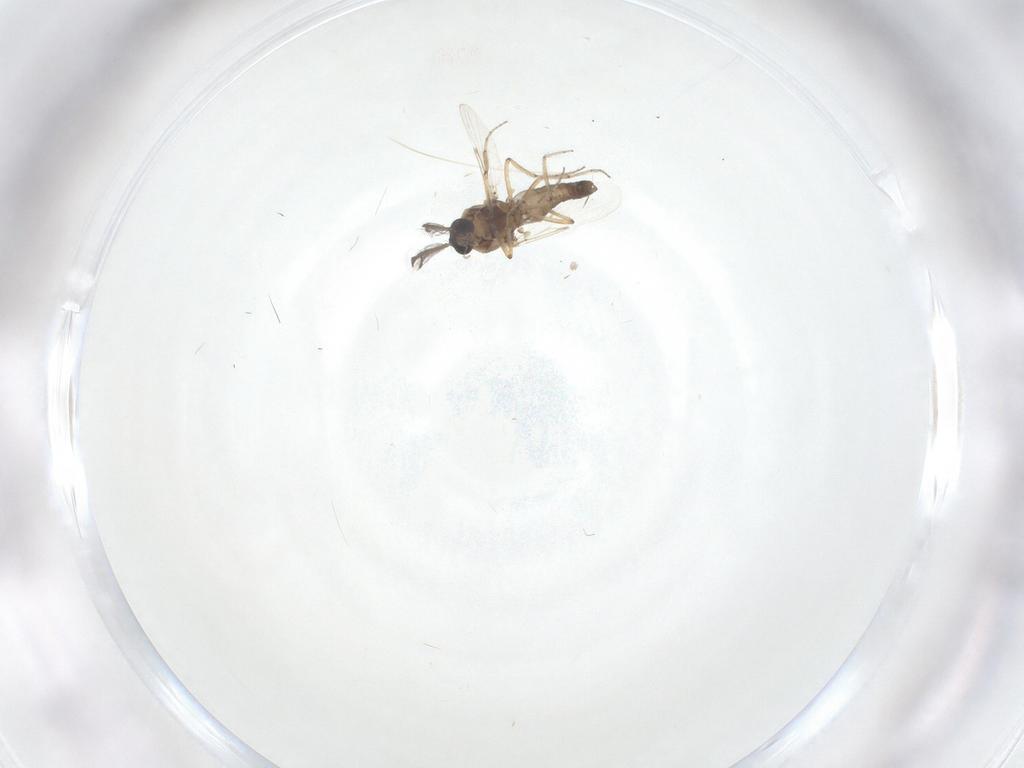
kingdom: Animalia
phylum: Arthropoda
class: Insecta
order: Diptera
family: Ceratopogonidae
